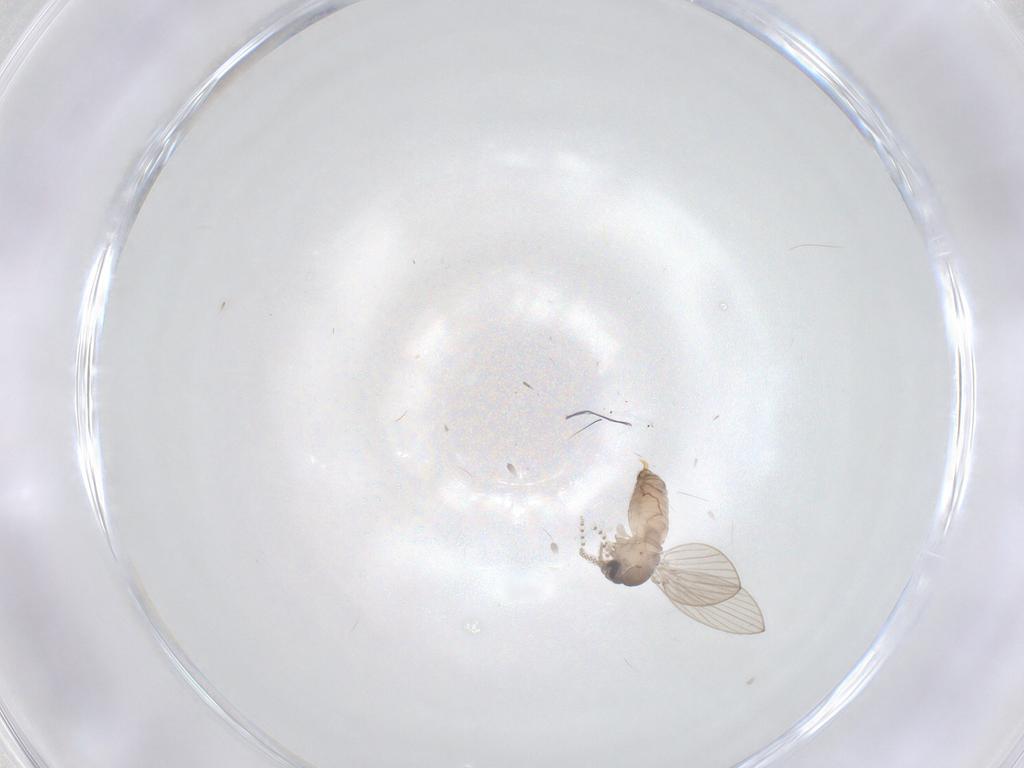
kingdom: Animalia
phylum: Arthropoda
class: Insecta
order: Diptera
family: Psychodidae
